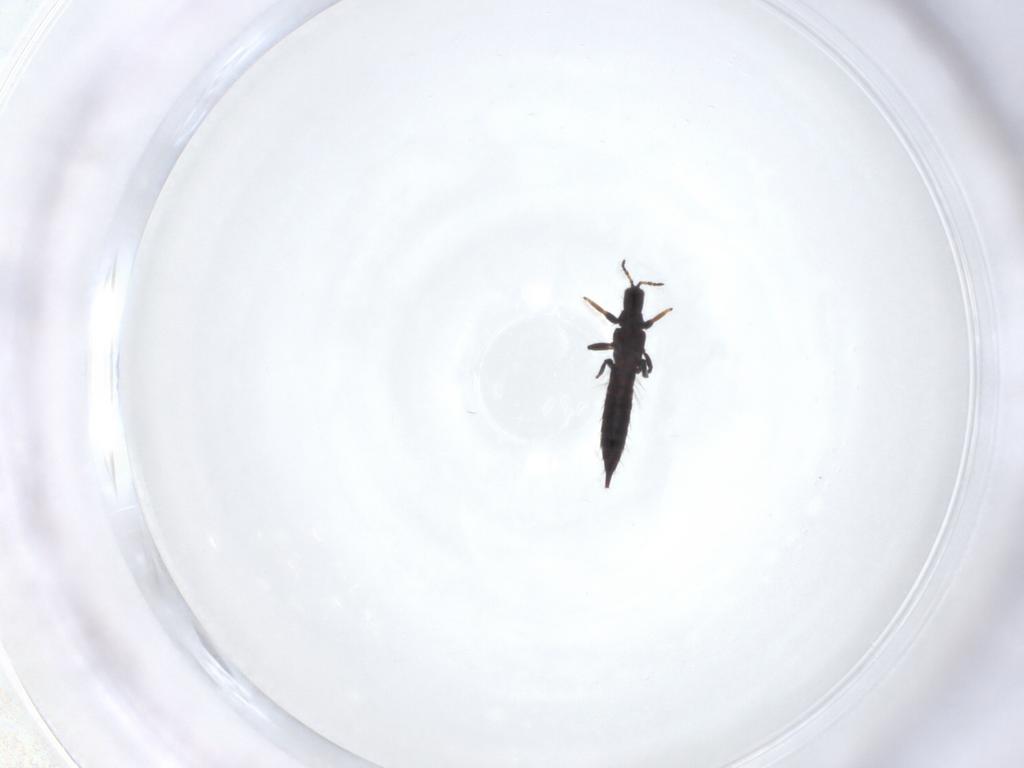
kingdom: Animalia
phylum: Arthropoda
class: Insecta
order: Thysanoptera
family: Phlaeothripidae
